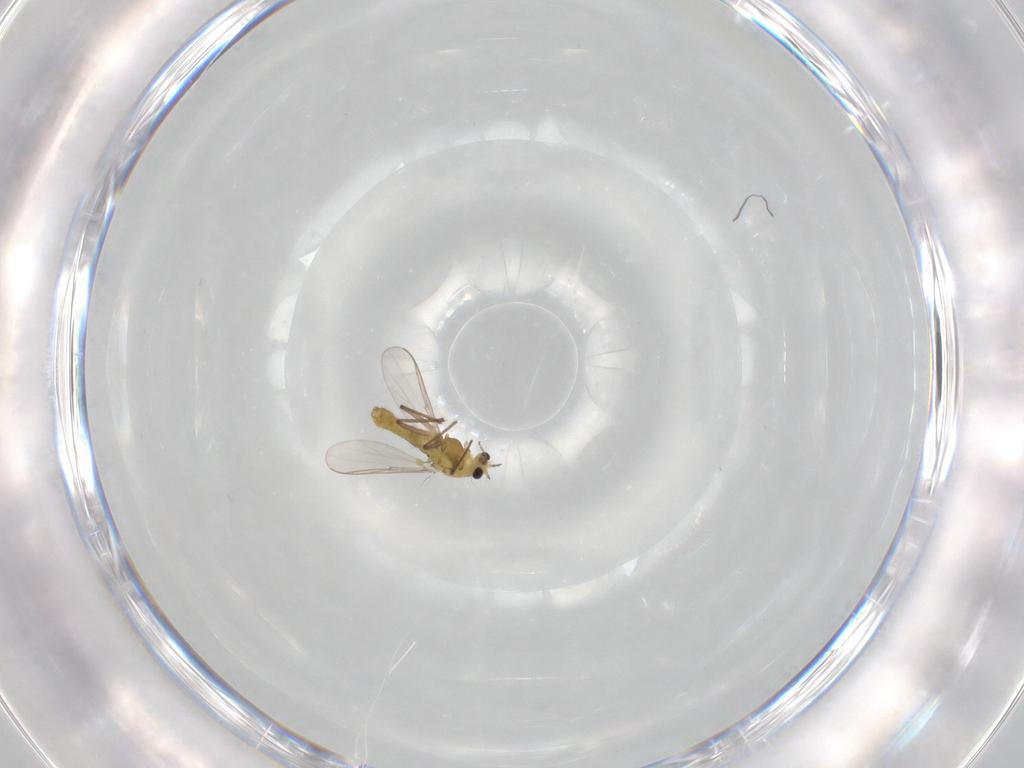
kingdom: Animalia
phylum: Arthropoda
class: Insecta
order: Diptera
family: Chironomidae
